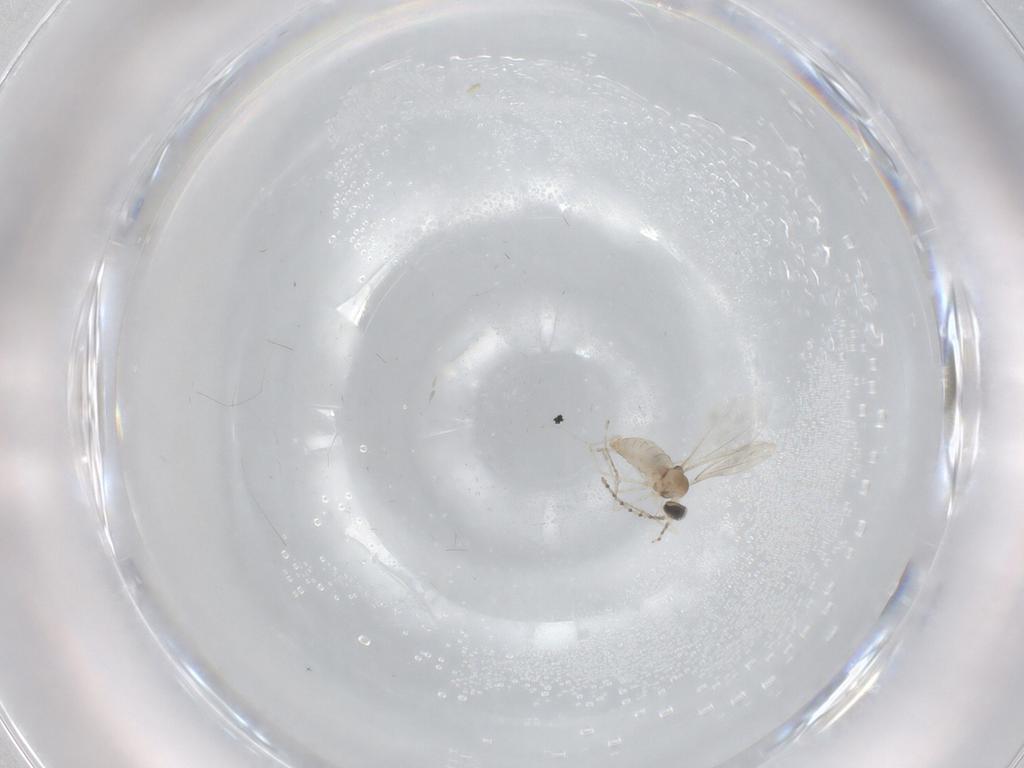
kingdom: Animalia
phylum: Arthropoda
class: Insecta
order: Diptera
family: Cecidomyiidae
